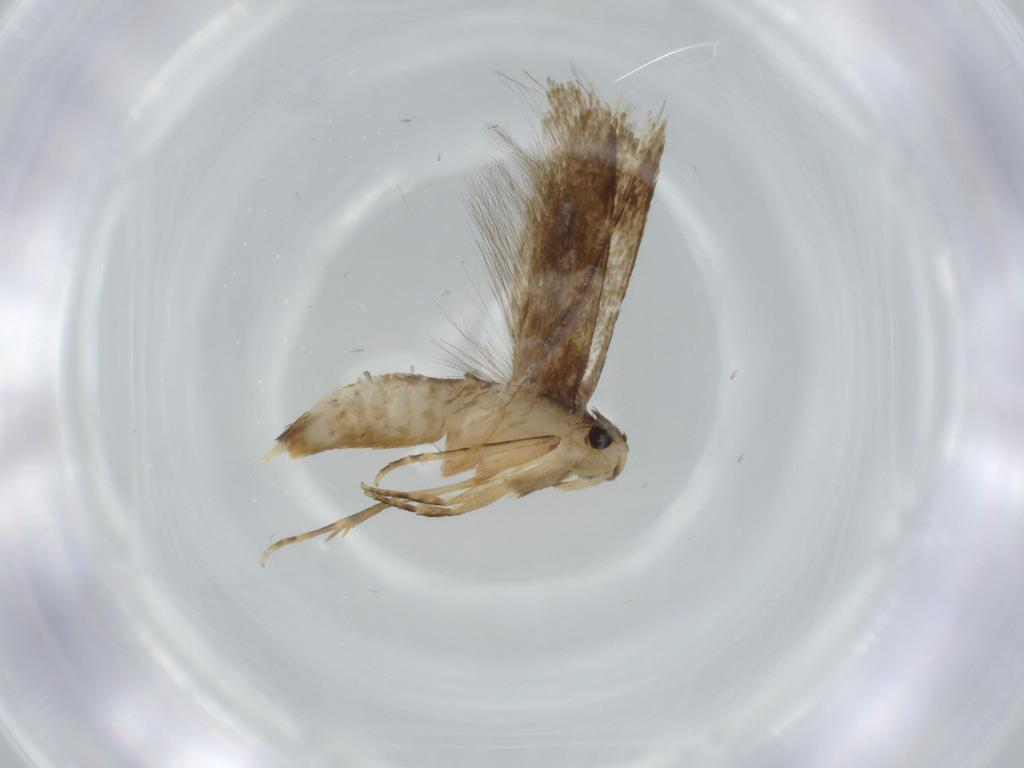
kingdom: Animalia
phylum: Arthropoda
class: Insecta
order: Lepidoptera
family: Tineidae
